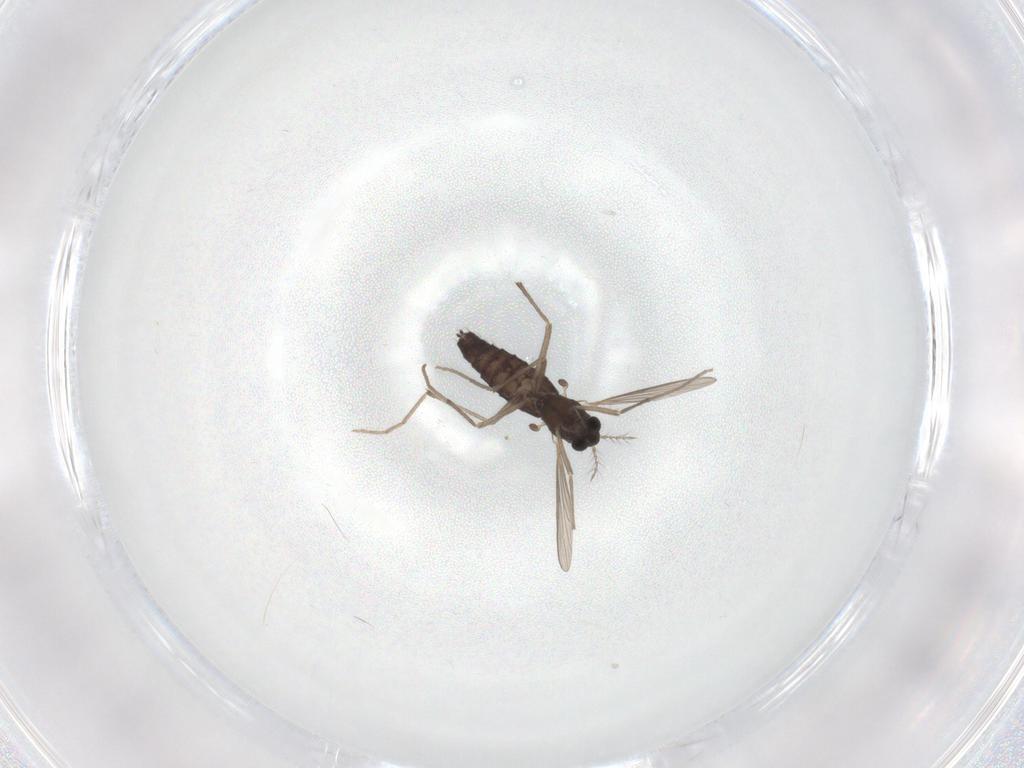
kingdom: Animalia
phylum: Arthropoda
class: Insecta
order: Diptera
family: Chironomidae
